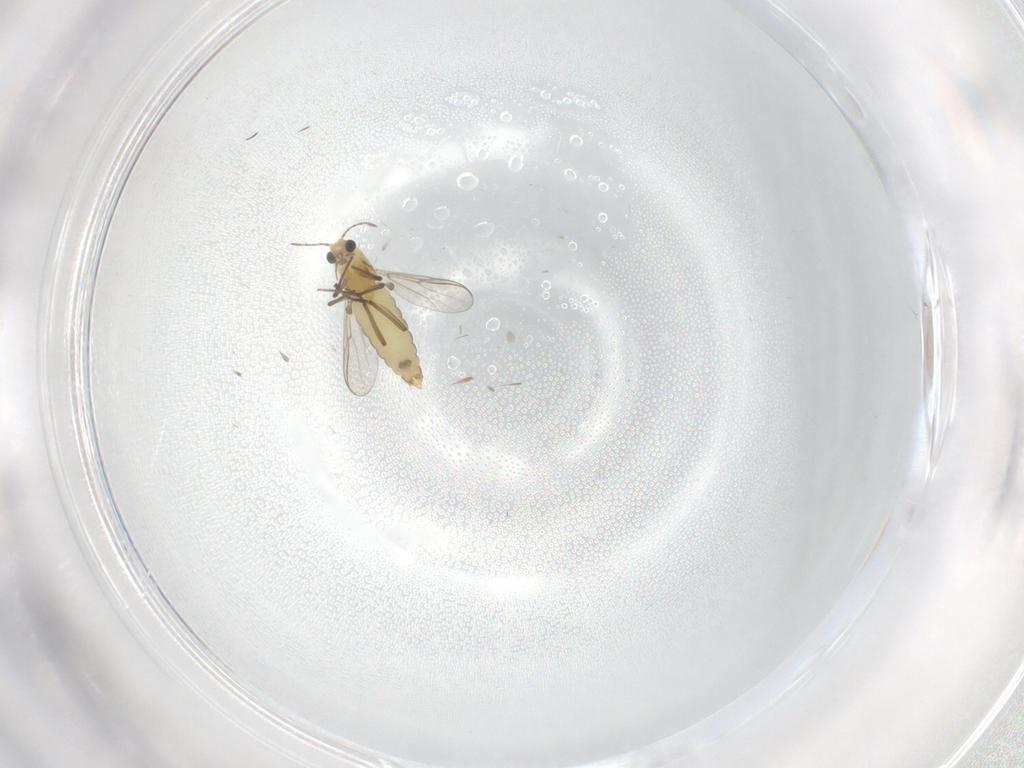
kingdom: Animalia
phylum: Arthropoda
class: Insecta
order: Diptera
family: Chironomidae
